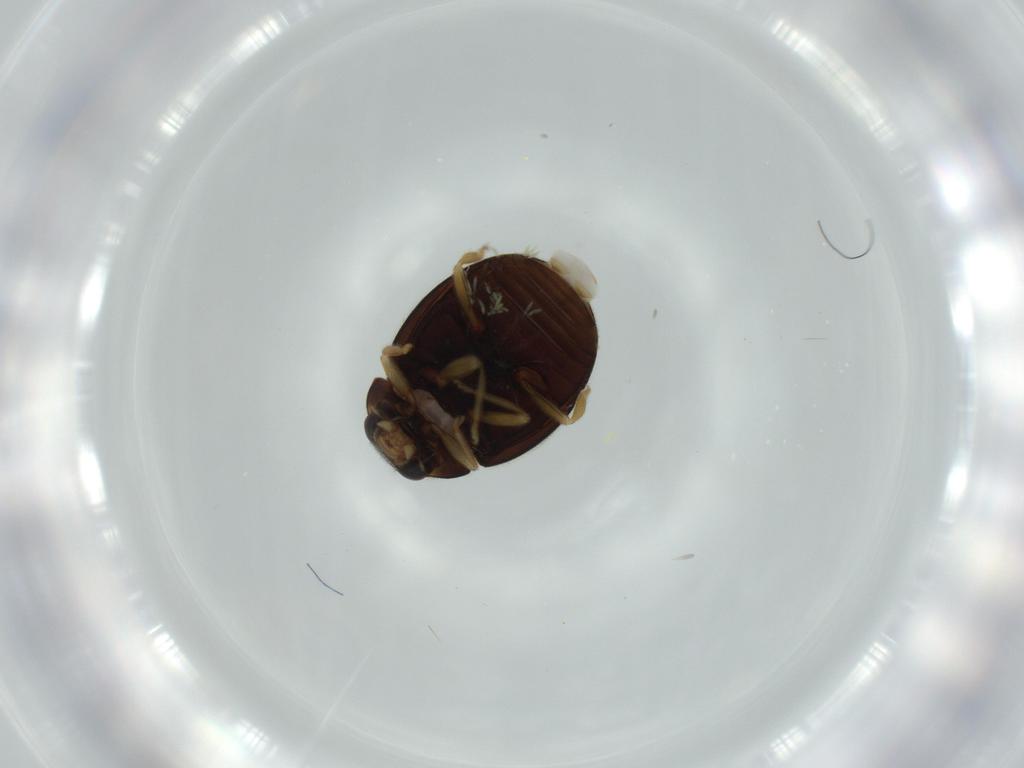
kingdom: Animalia
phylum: Arthropoda
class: Insecta
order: Coleoptera
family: Coccinellidae
